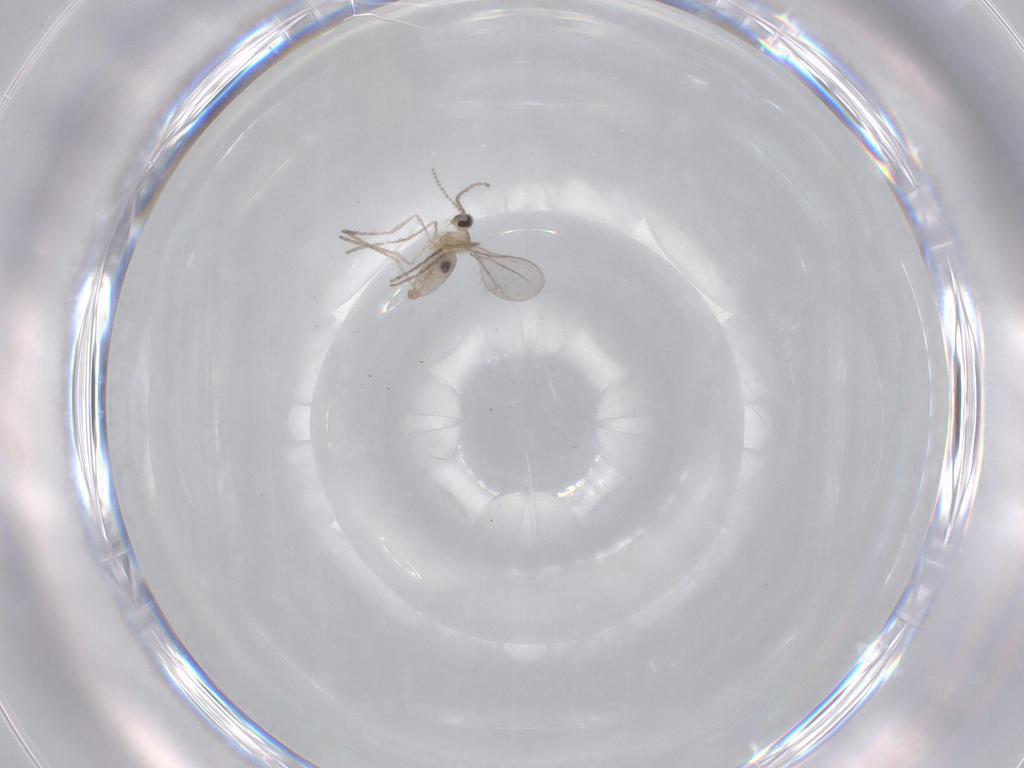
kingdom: Animalia
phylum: Arthropoda
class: Insecta
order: Diptera
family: Cecidomyiidae
